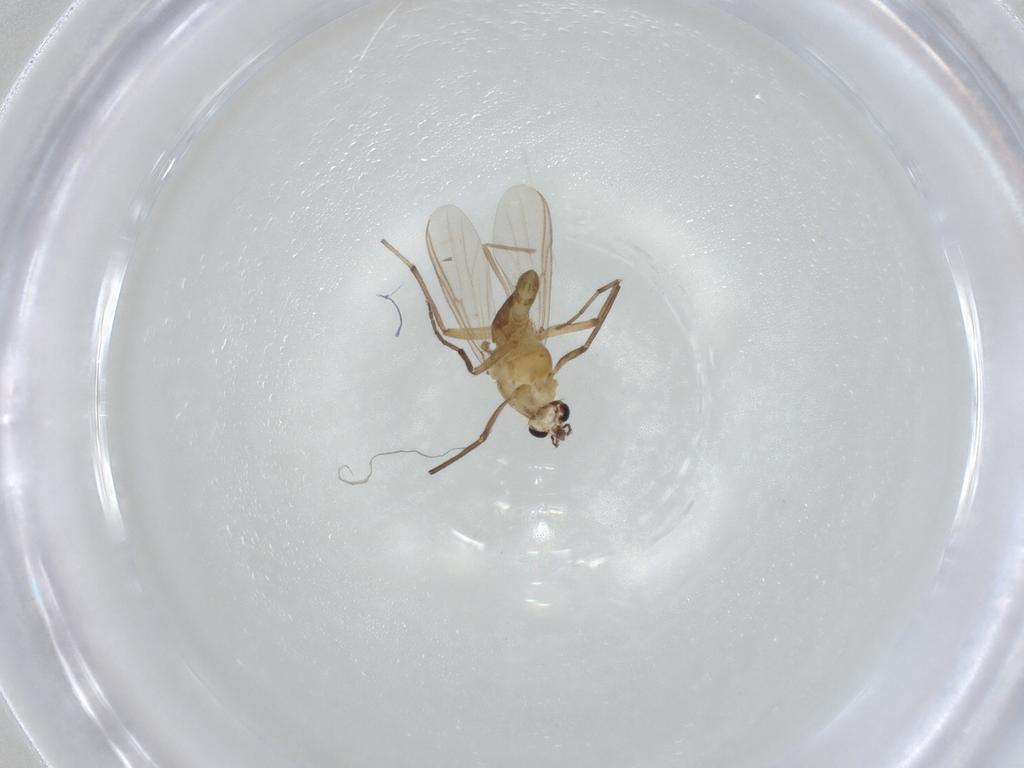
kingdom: Animalia
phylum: Arthropoda
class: Insecta
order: Diptera
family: Chironomidae
